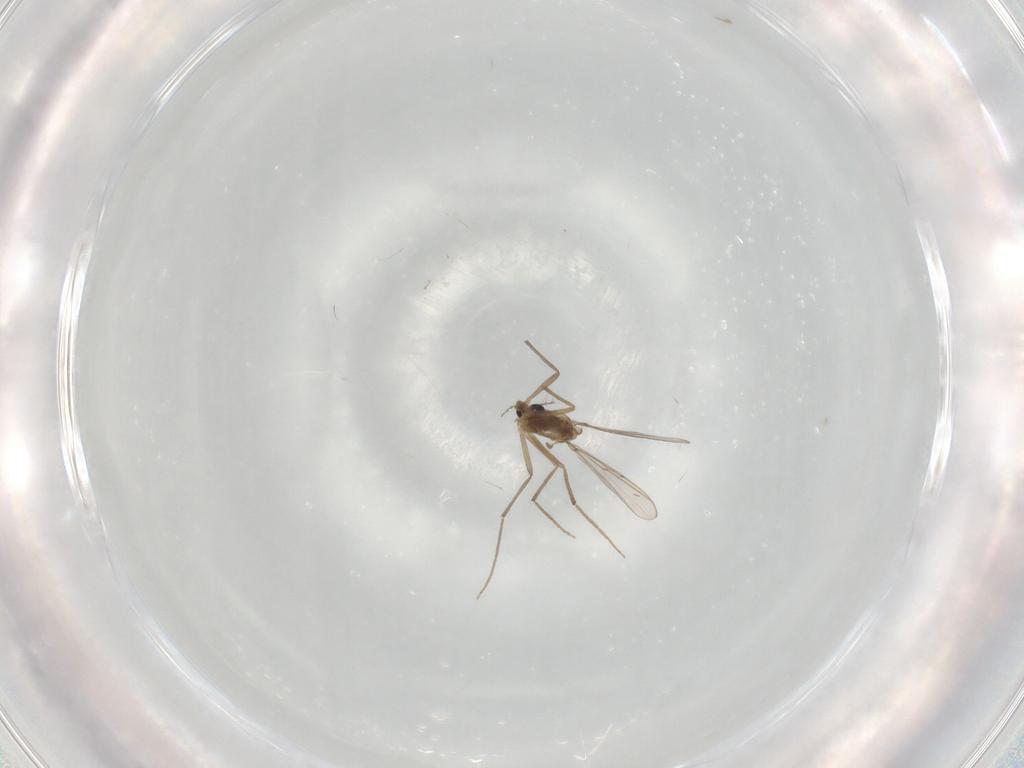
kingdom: Animalia
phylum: Arthropoda
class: Insecta
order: Diptera
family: Chironomidae
